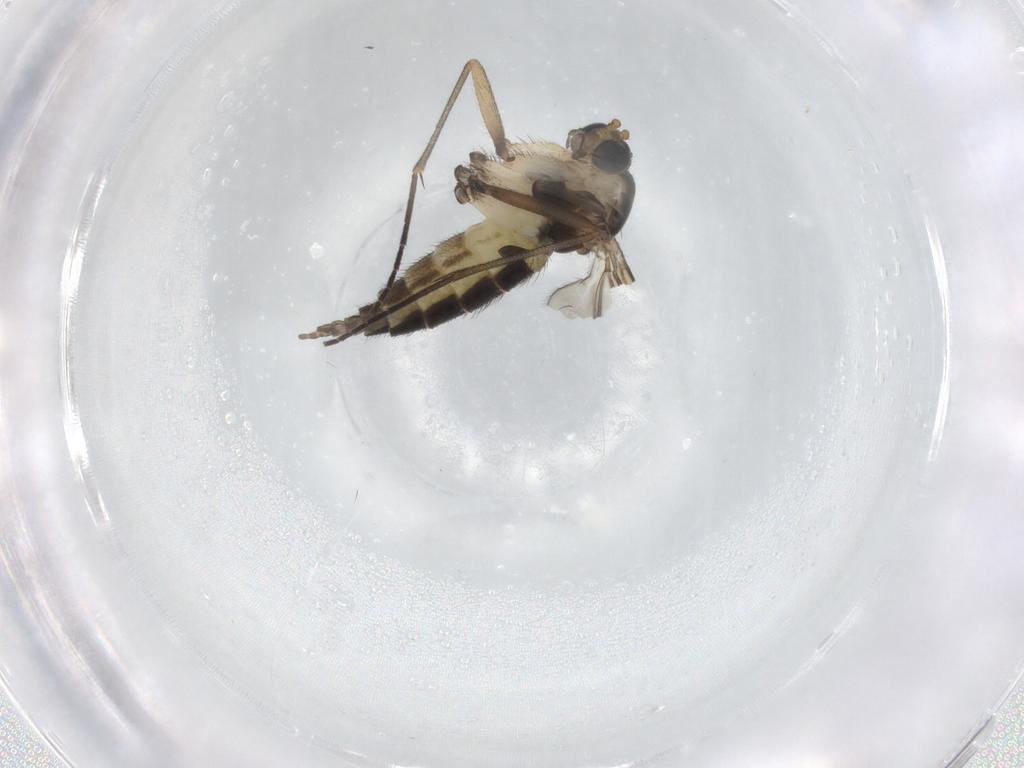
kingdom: Animalia
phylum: Arthropoda
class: Insecta
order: Diptera
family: Sciaridae
